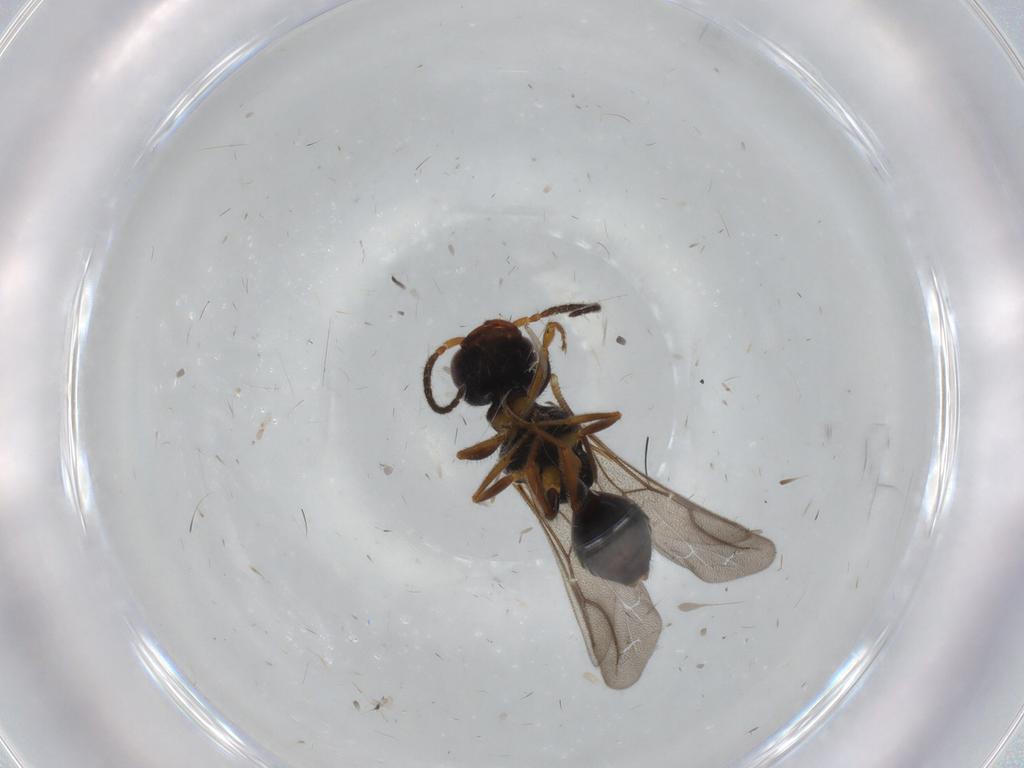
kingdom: Animalia
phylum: Arthropoda
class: Insecta
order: Hymenoptera
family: Bethylidae
